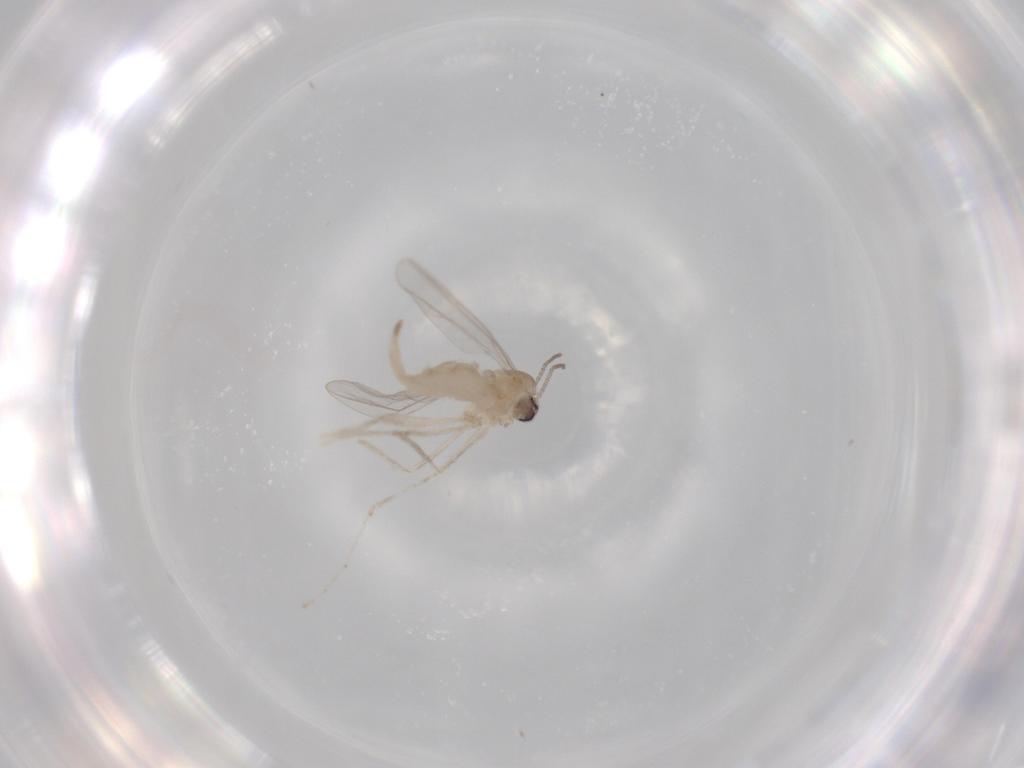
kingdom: Animalia
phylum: Arthropoda
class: Insecta
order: Diptera
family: Cecidomyiidae
